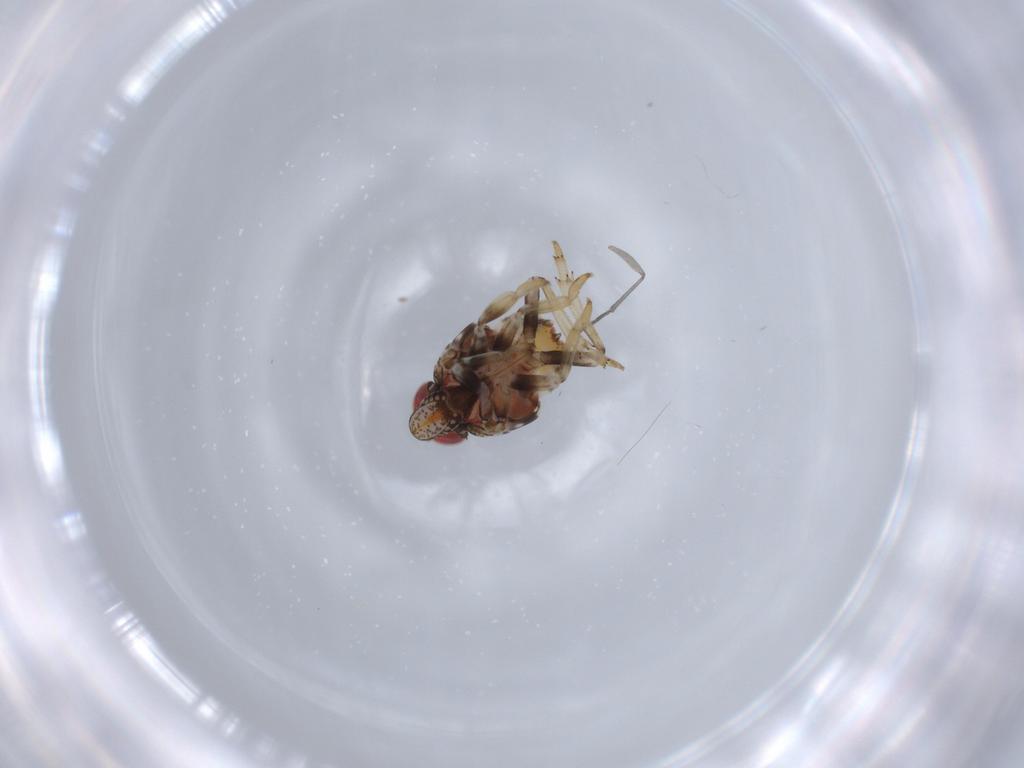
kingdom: Animalia
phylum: Arthropoda
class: Insecta
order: Hemiptera
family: Issidae
